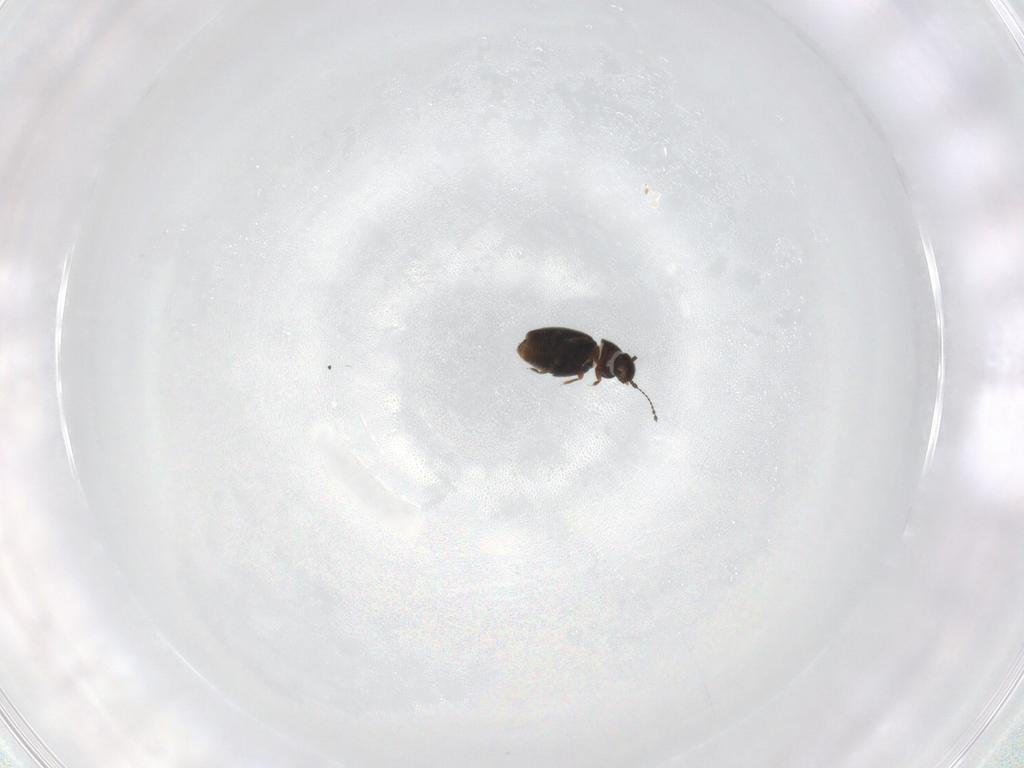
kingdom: Animalia
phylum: Arthropoda
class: Insecta
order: Coleoptera
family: Ptiliidae
